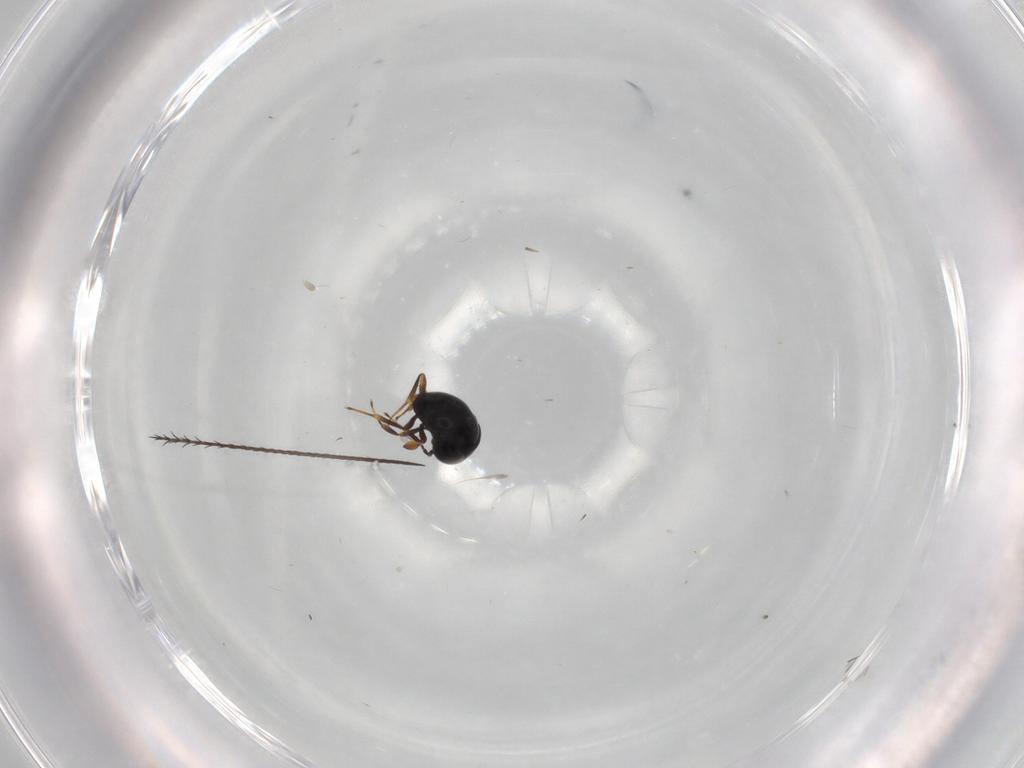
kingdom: Animalia
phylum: Arthropoda
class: Insecta
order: Hymenoptera
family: Scelionidae
